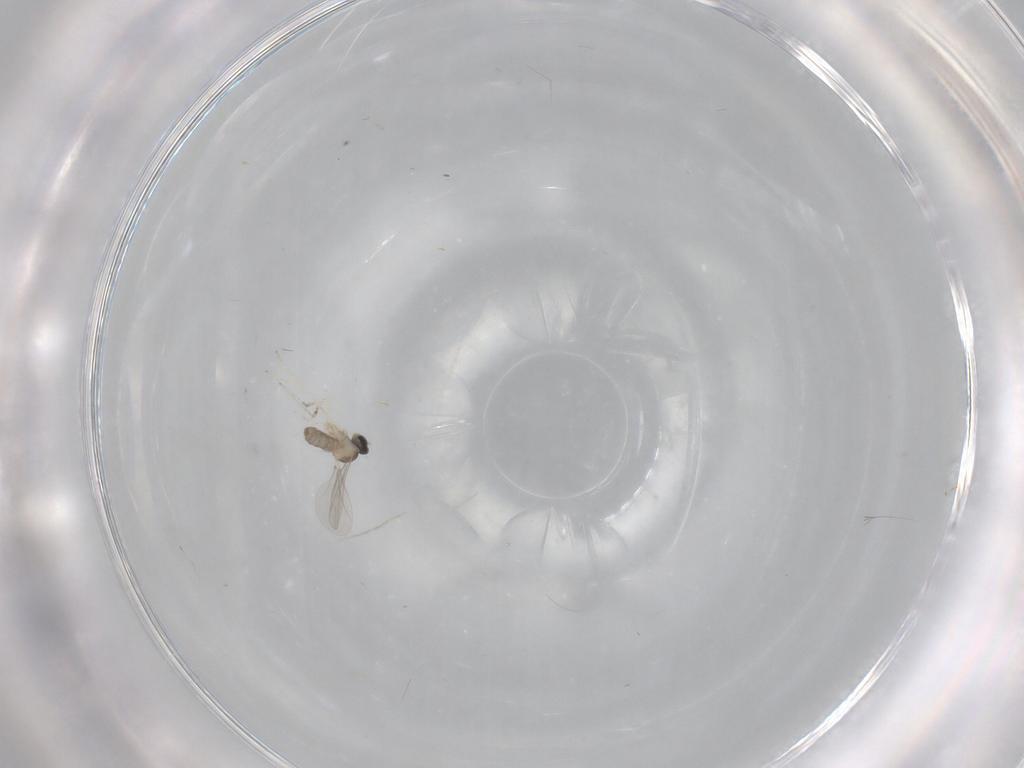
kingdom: Animalia
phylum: Arthropoda
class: Insecta
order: Diptera
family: Cecidomyiidae
